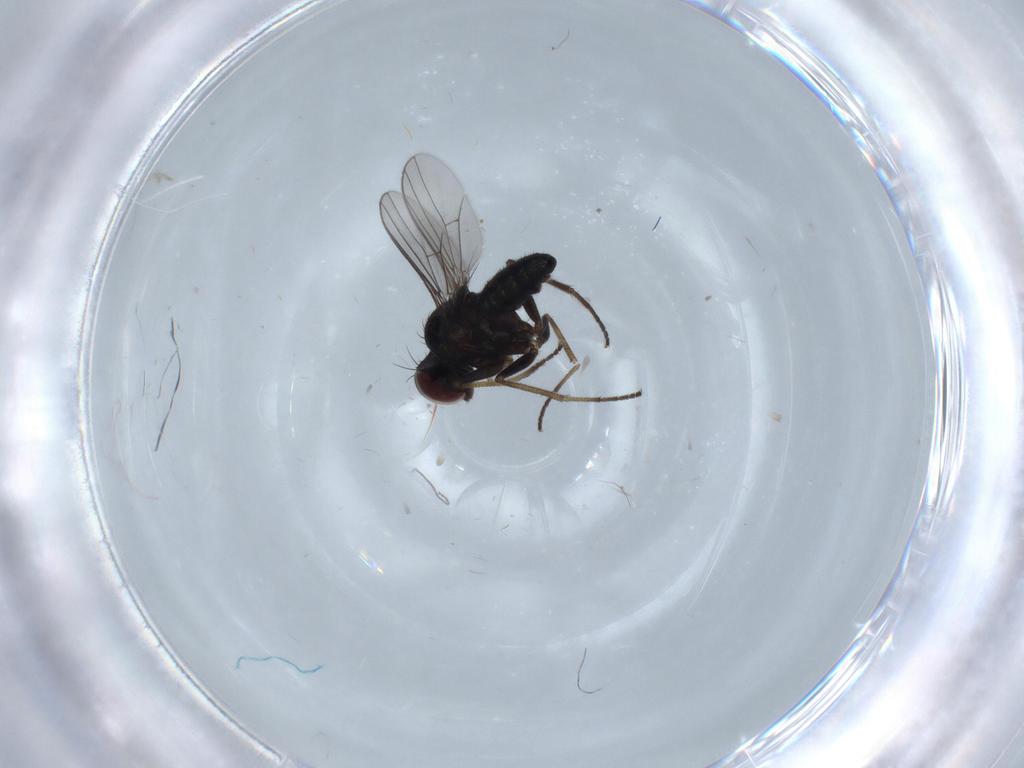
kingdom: Animalia
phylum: Arthropoda
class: Insecta
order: Diptera
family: Dolichopodidae
